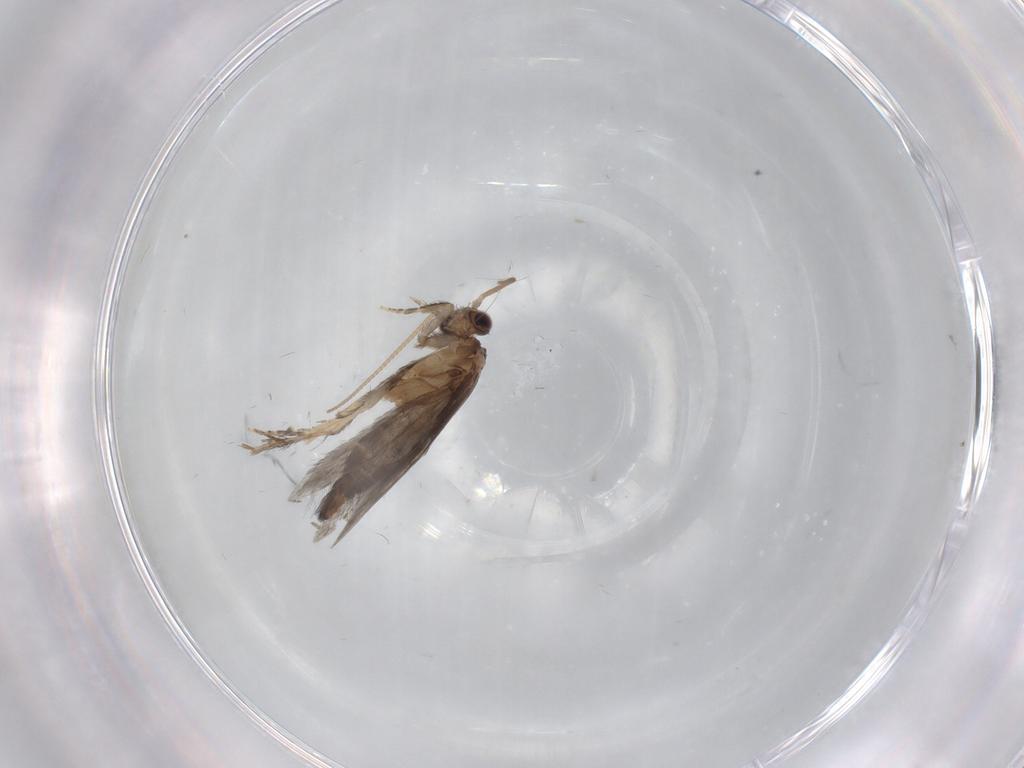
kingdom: Animalia
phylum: Arthropoda
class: Insecta
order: Trichoptera
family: Hydroptilidae
